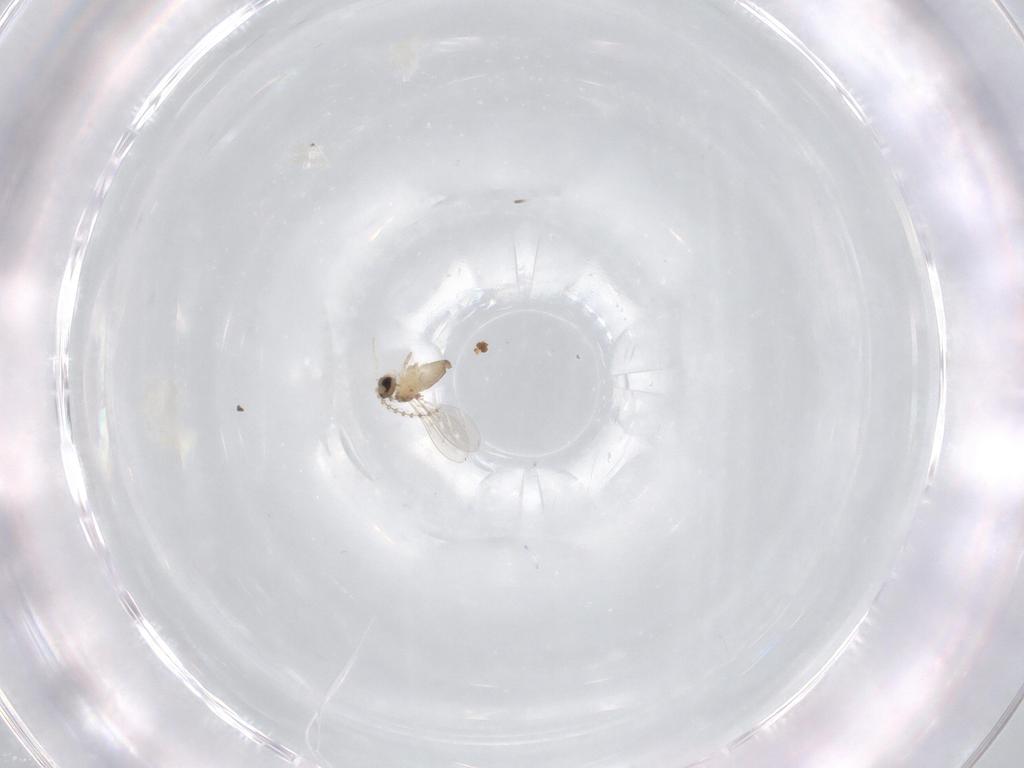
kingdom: Animalia
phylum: Arthropoda
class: Insecta
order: Diptera
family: Cecidomyiidae
